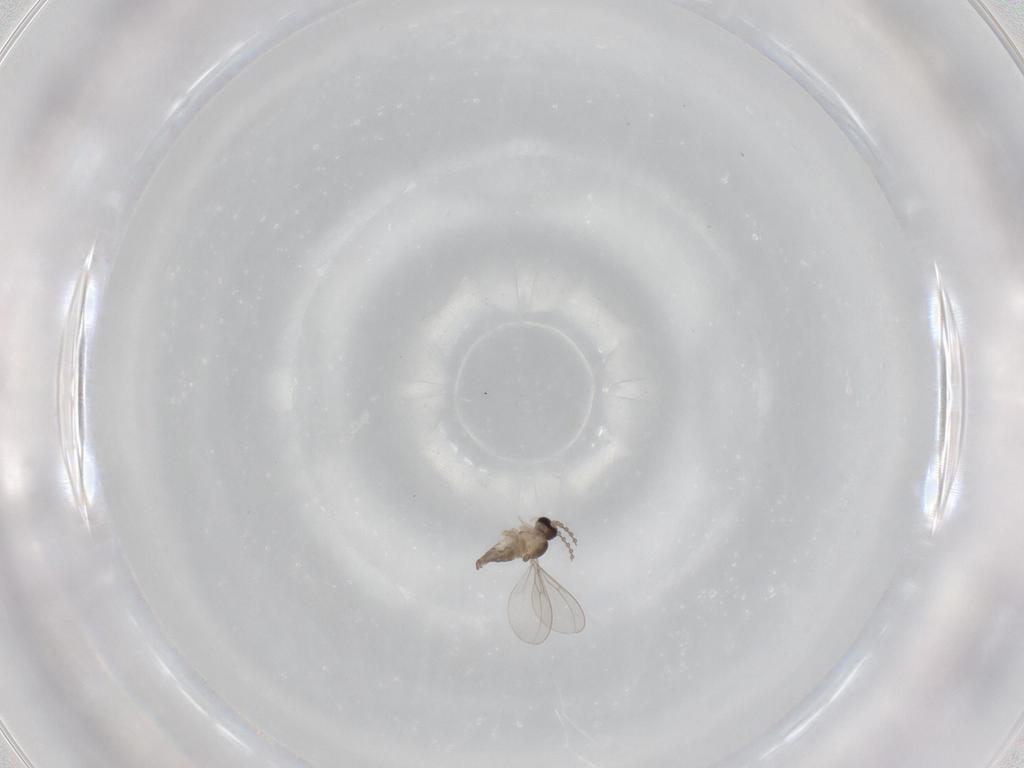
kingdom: Animalia
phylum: Arthropoda
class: Insecta
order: Diptera
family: Cecidomyiidae
